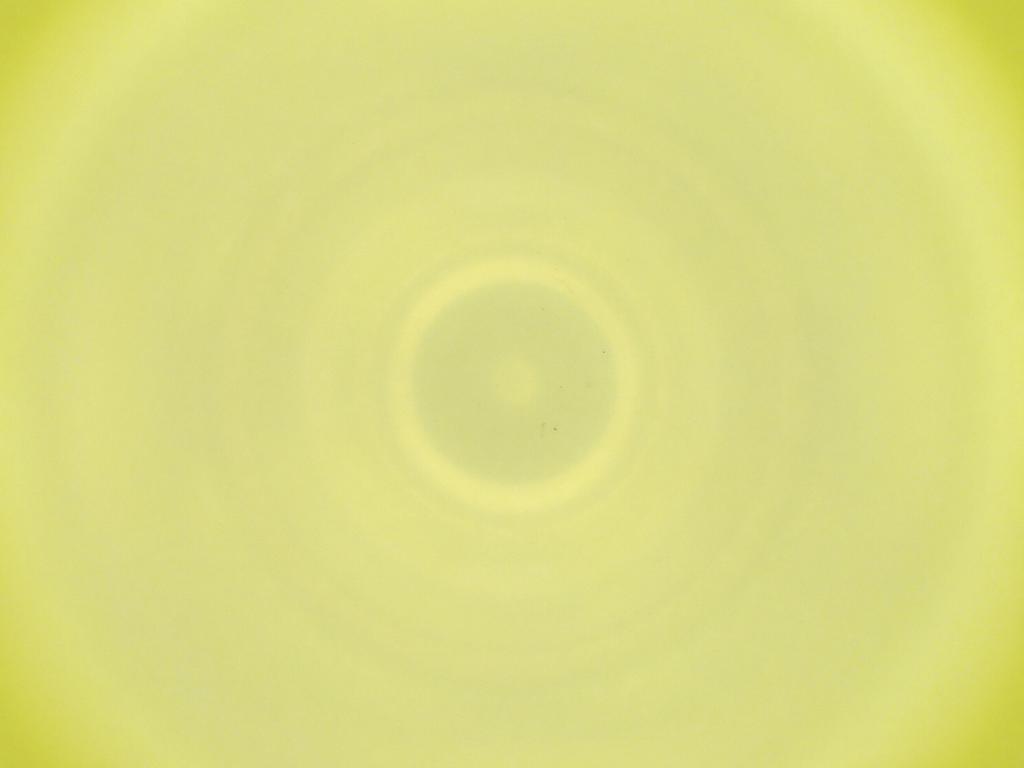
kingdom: Animalia
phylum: Arthropoda
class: Insecta
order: Diptera
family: Cecidomyiidae
